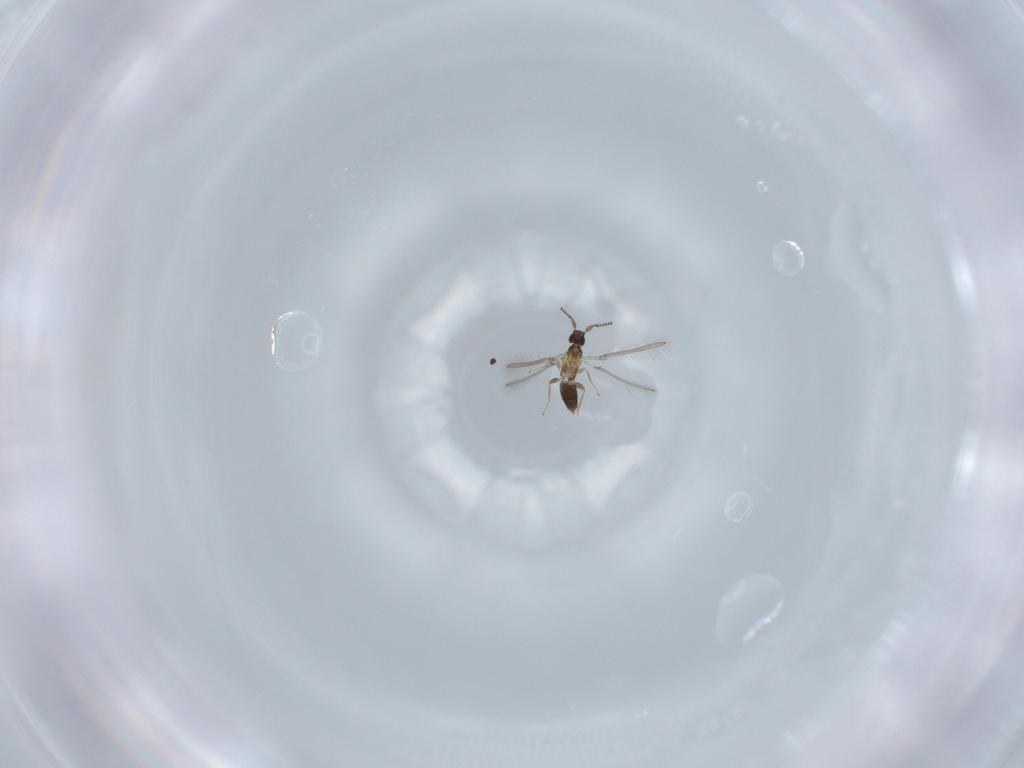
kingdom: Animalia
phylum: Arthropoda
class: Insecta
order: Hymenoptera
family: Mymaridae
